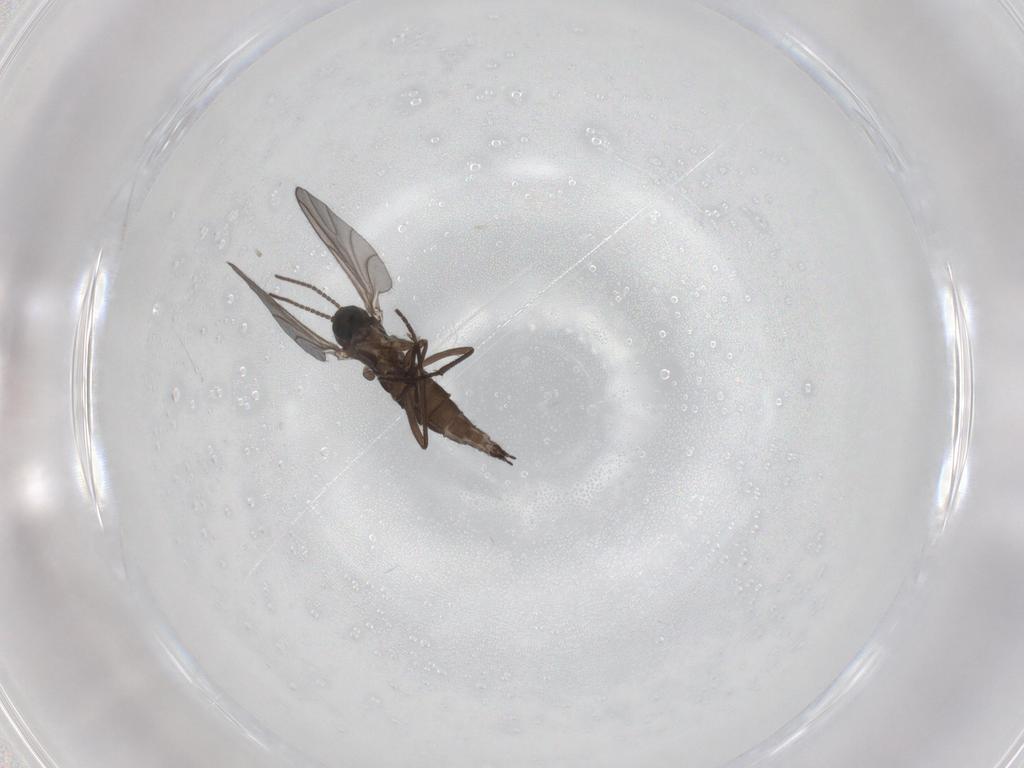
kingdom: Animalia
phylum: Arthropoda
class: Insecta
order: Diptera
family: Sciaridae
